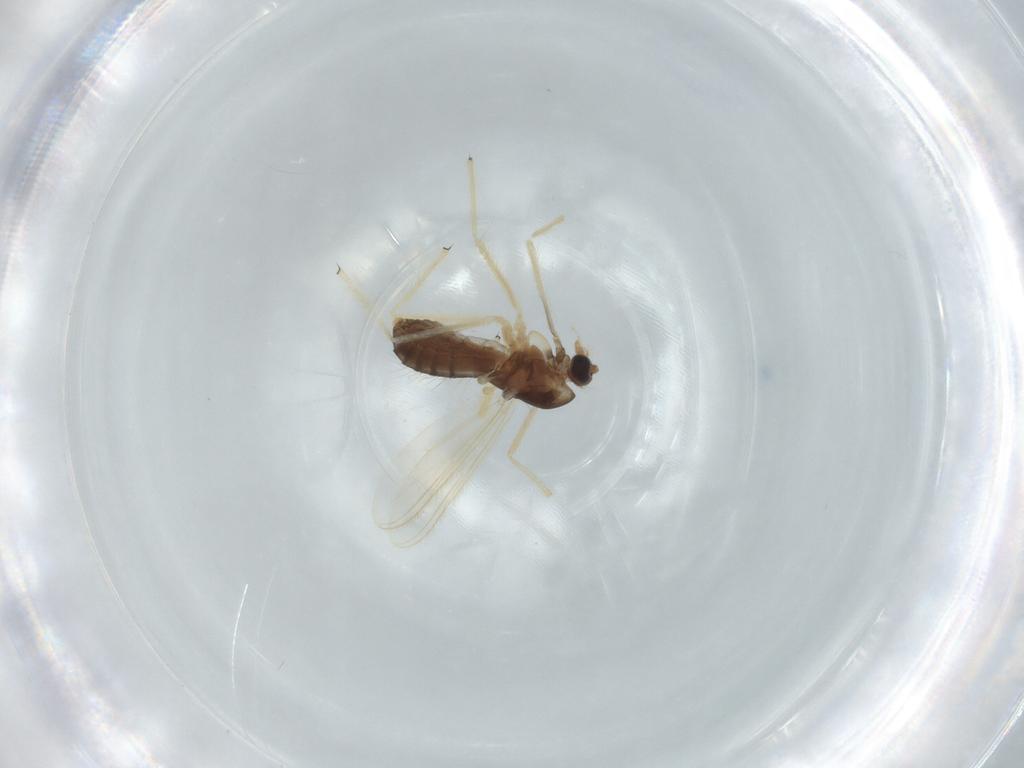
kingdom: Animalia
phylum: Arthropoda
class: Insecta
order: Diptera
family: Chironomidae
